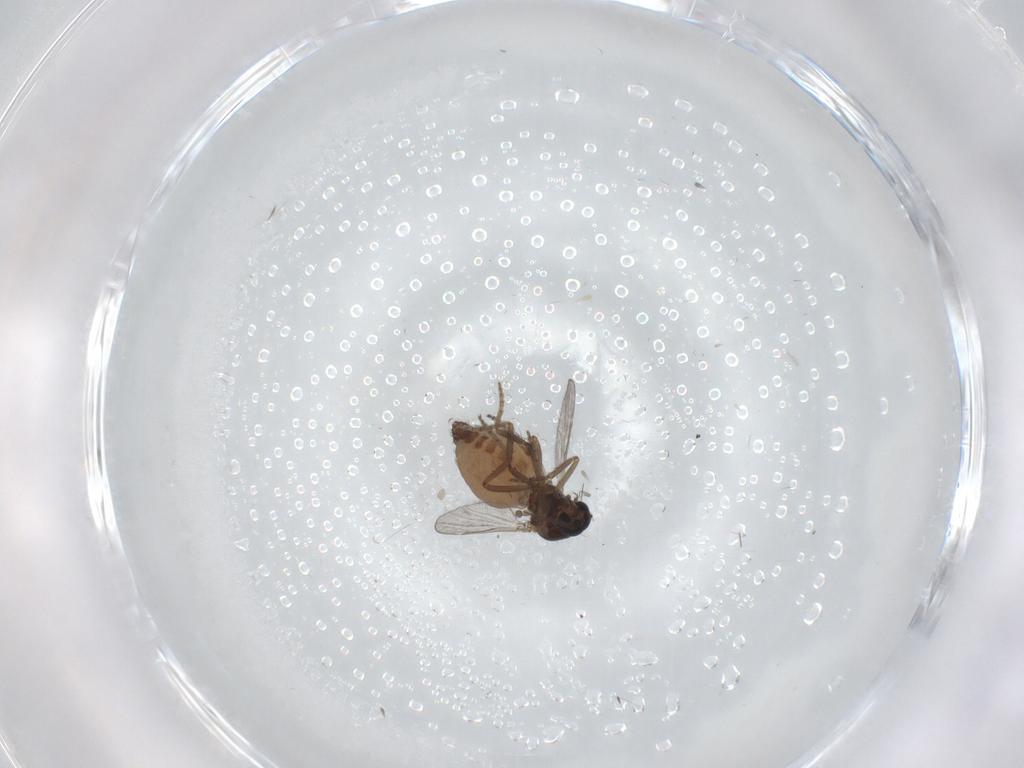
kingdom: Animalia
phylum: Arthropoda
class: Insecta
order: Diptera
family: Ceratopogonidae
